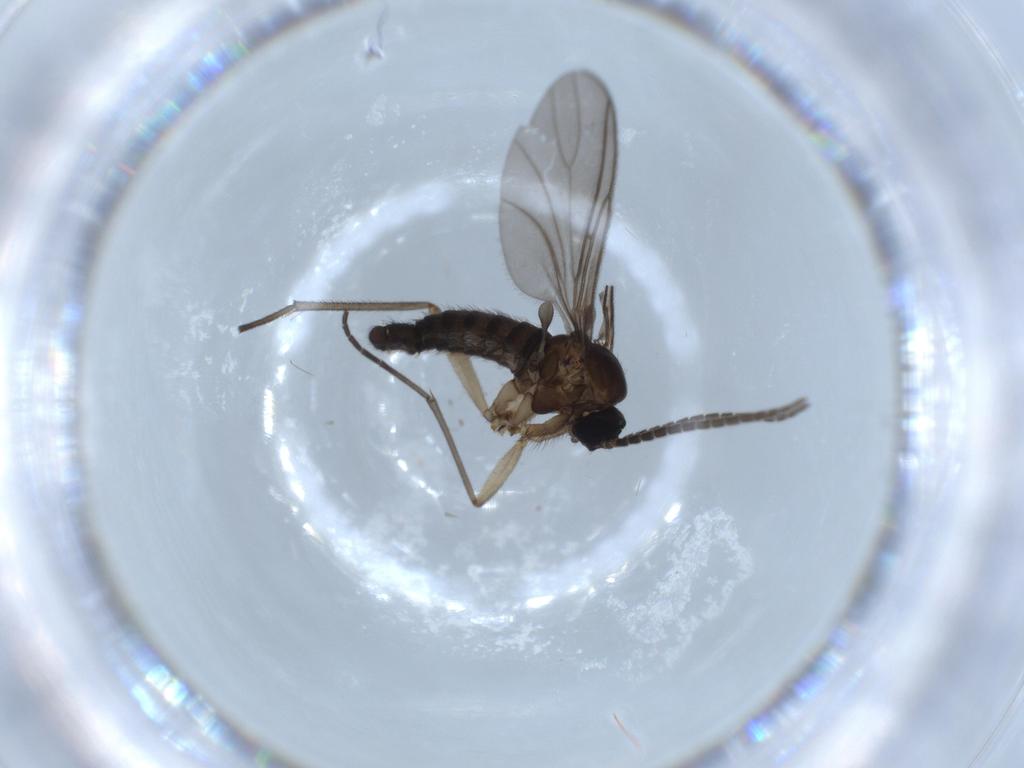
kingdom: Animalia
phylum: Arthropoda
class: Insecta
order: Diptera
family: Sciaridae
